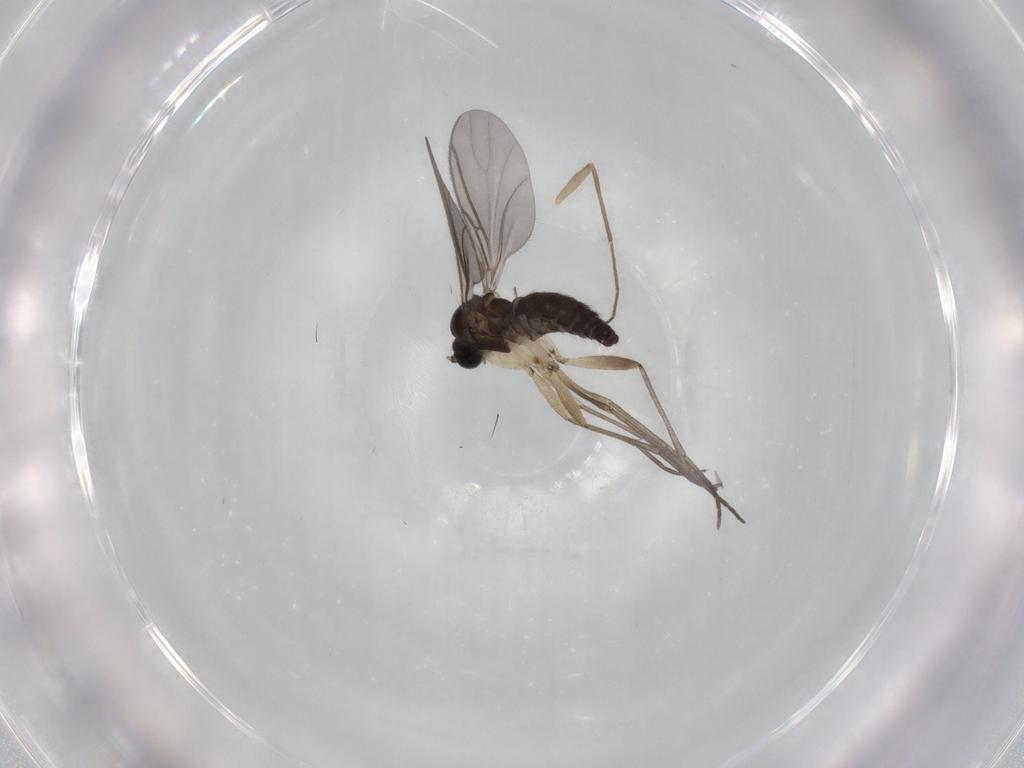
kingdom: Animalia
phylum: Arthropoda
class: Insecta
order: Diptera
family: Sciaridae
